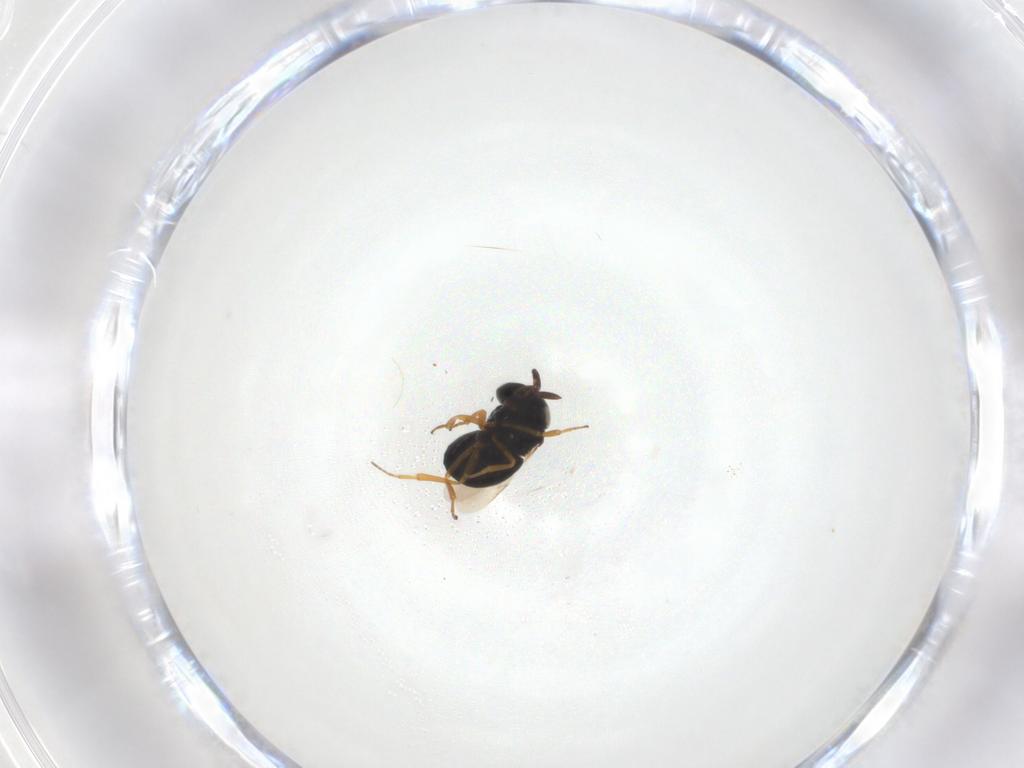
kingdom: Animalia
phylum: Arthropoda
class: Insecta
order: Hymenoptera
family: Scelionidae
